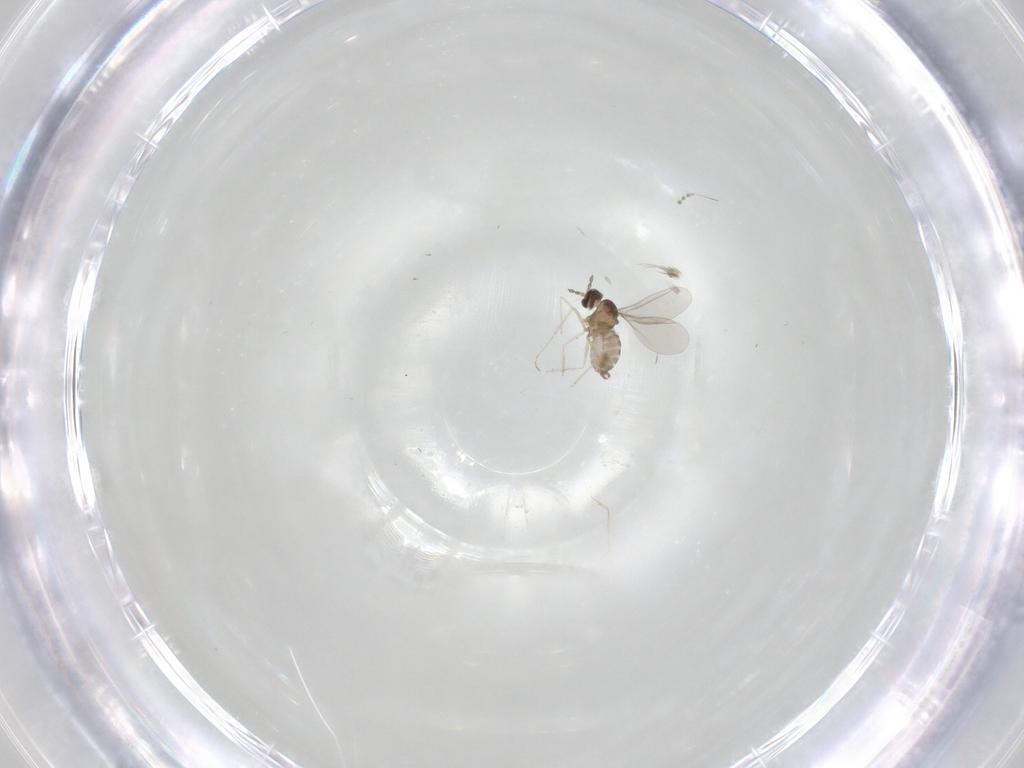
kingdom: Animalia
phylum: Arthropoda
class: Insecta
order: Diptera
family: Cecidomyiidae
